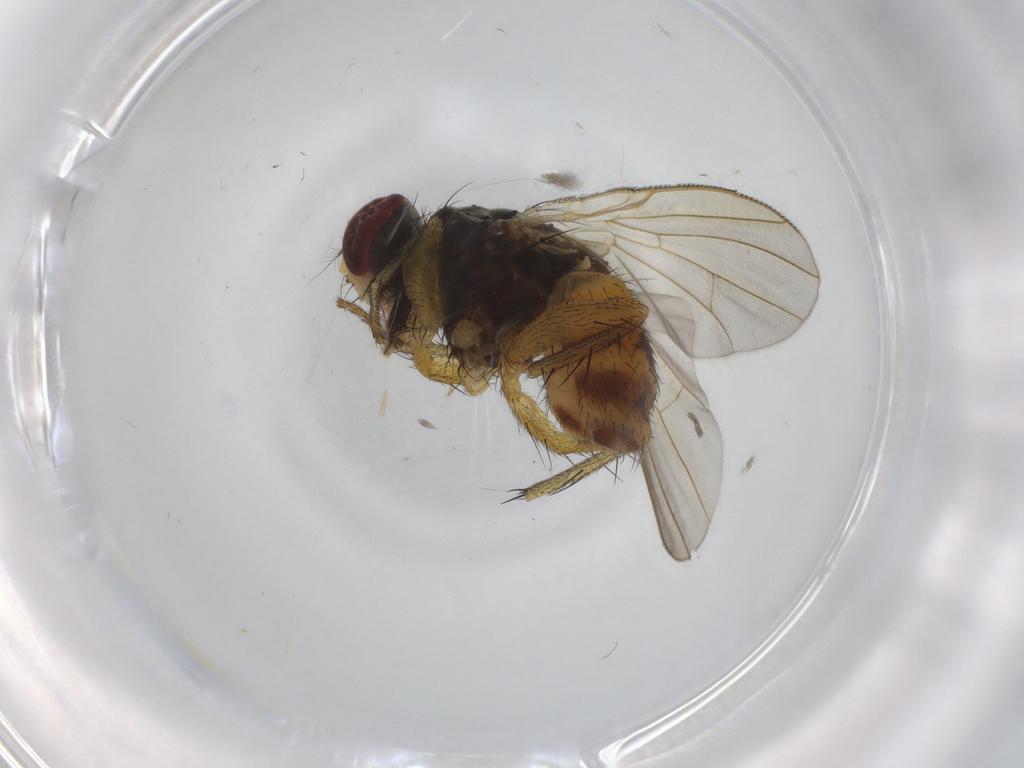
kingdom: Animalia
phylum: Arthropoda
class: Insecta
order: Diptera
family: Muscidae
